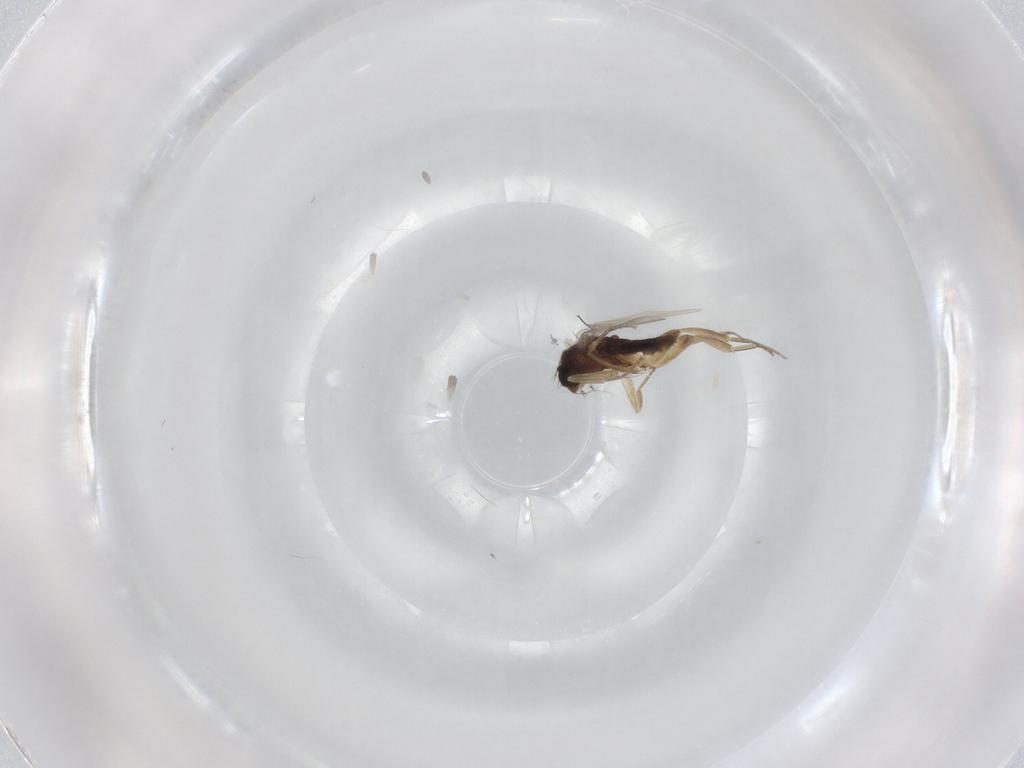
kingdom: Animalia
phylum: Arthropoda
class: Insecta
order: Diptera
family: Phoridae
